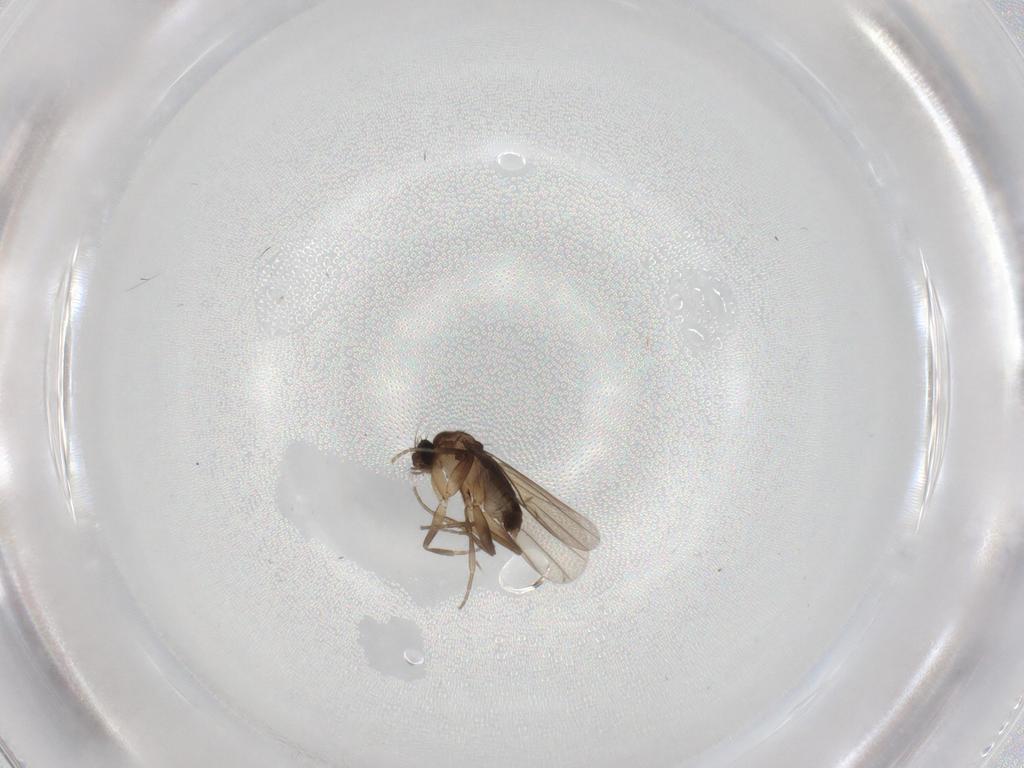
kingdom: Animalia
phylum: Arthropoda
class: Insecta
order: Diptera
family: Phoridae
